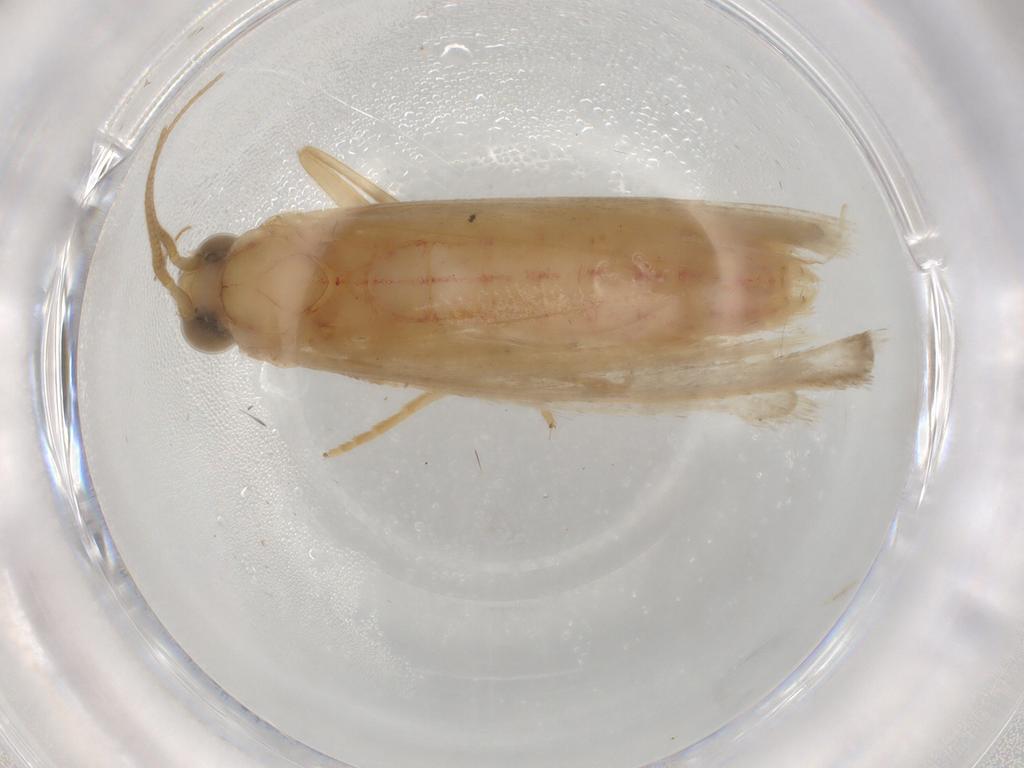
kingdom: Animalia
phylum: Arthropoda
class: Insecta
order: Lepidoptera
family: Pyralidae
